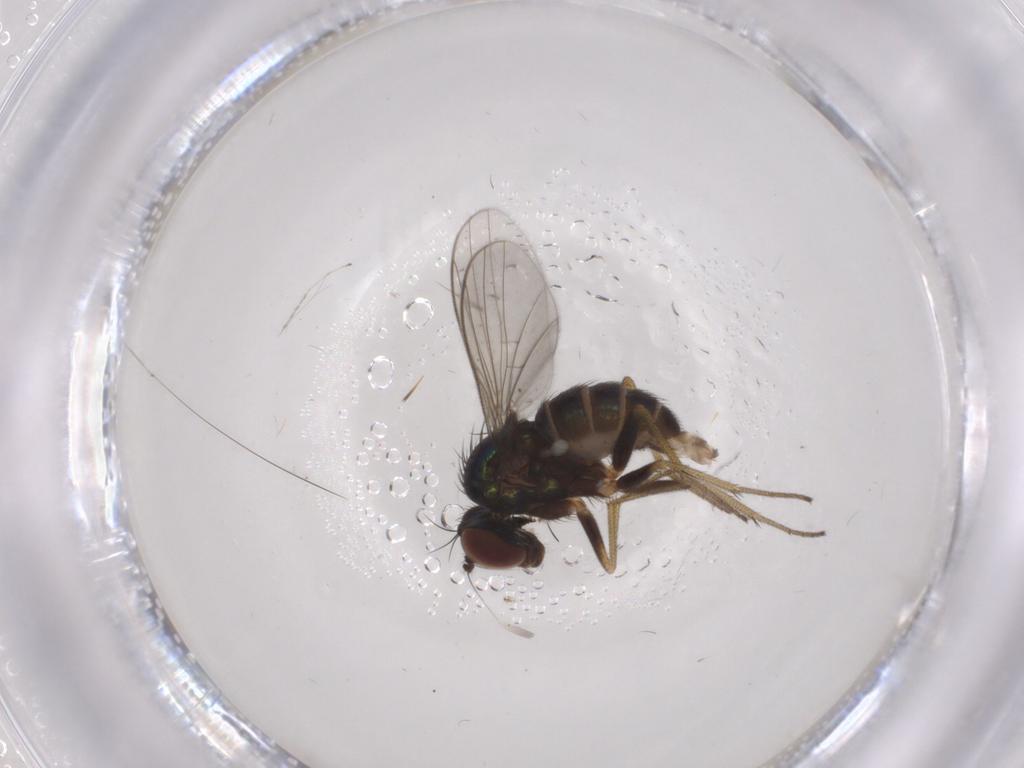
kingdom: Animalia
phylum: Arthropoda
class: Insecta
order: Diptera
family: Dolichopodidae
